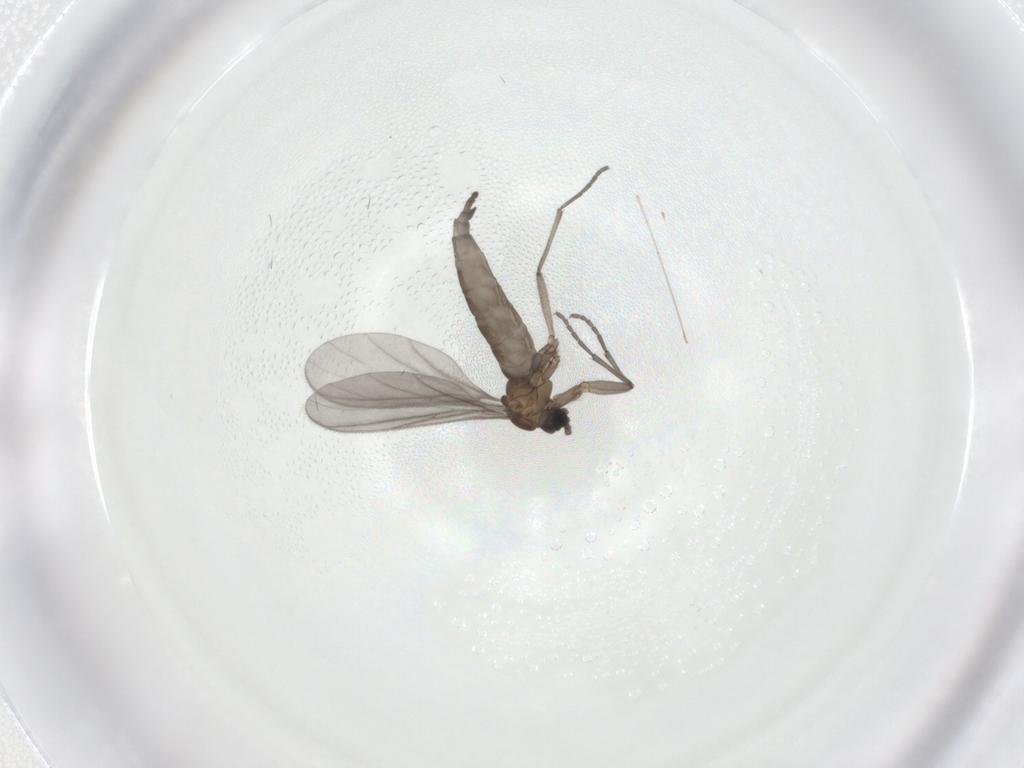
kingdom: Animalia
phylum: Arthropoda
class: Insecta
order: Diptera
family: Sciaridae
